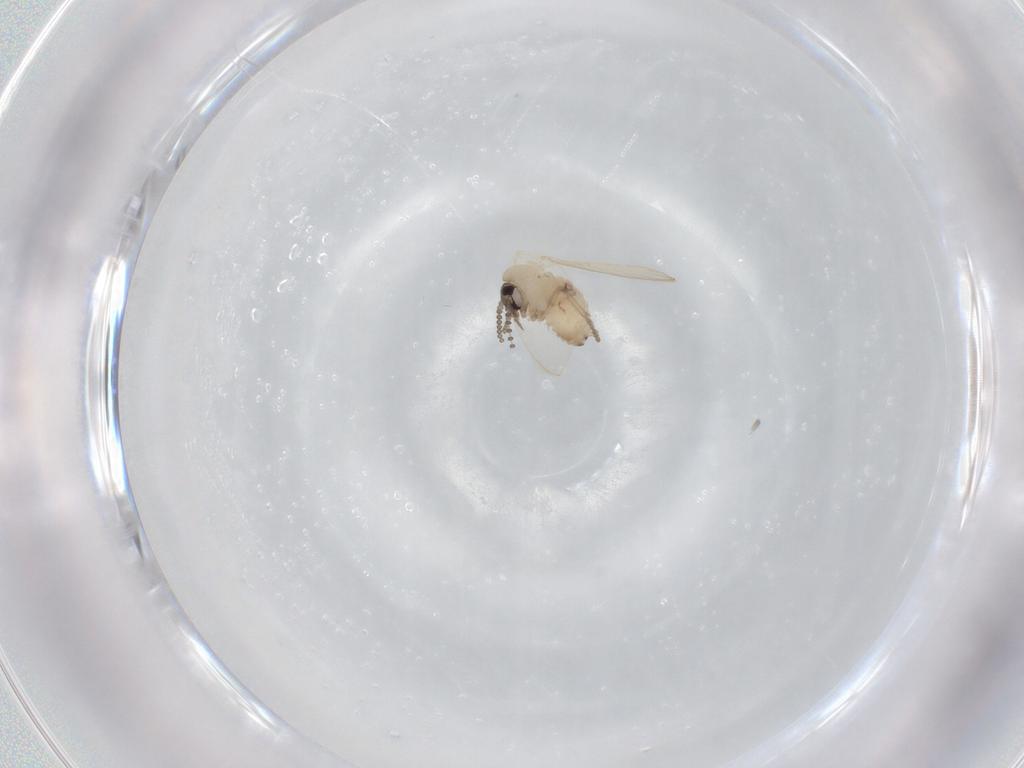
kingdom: Animalia
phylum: Arthropoda
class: Insecta
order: Diptera
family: Psychodidae
